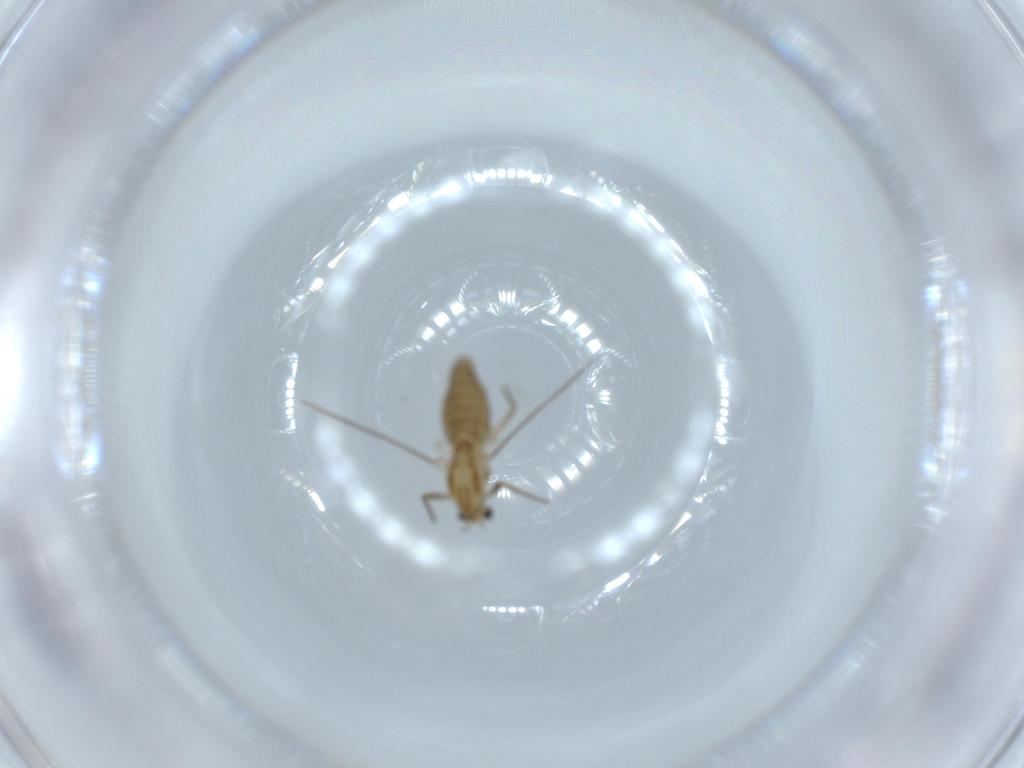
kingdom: Animalia
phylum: Arthropoda
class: Insecta
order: Diptera
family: Chironomidae
